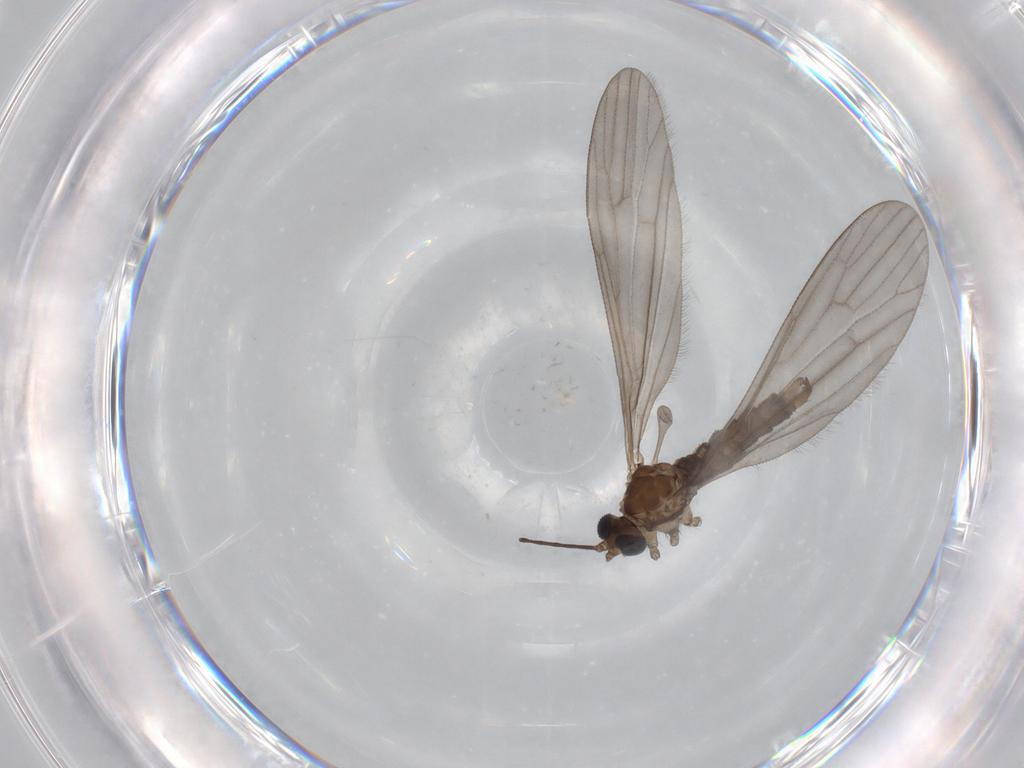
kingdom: Animalia
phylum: Arthropoda
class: Insecta
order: Diptera
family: Limoniidae
